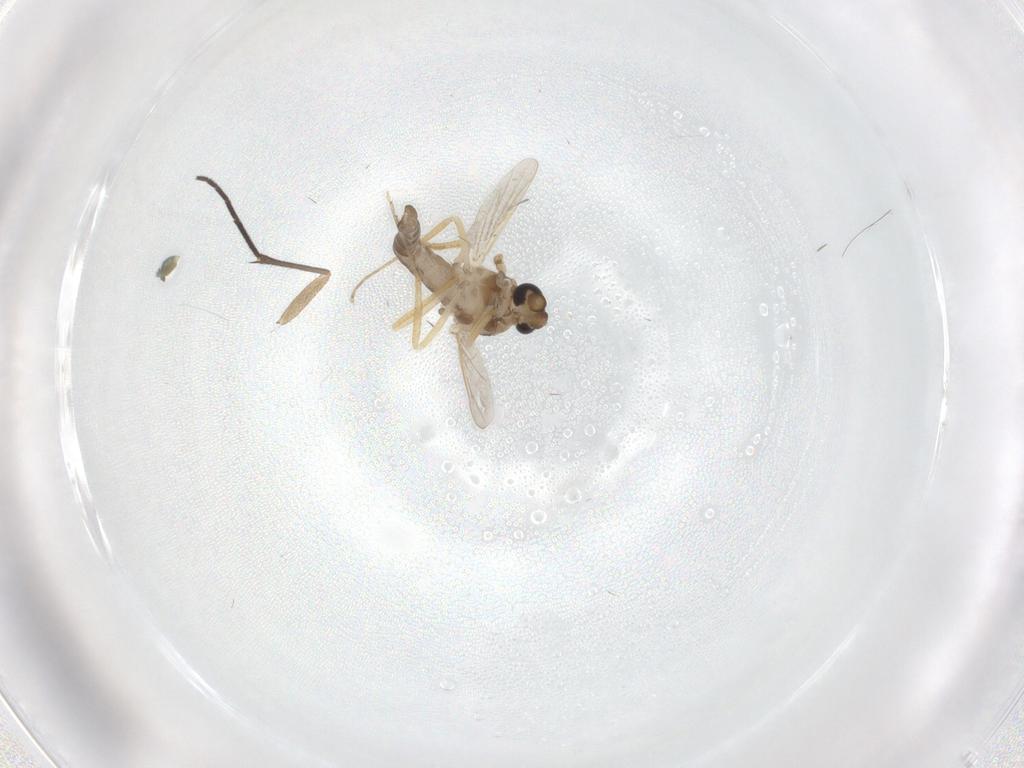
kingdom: Animalia
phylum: Arthropoda
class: Insecta
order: Diptera
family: Ceratopogonidae
